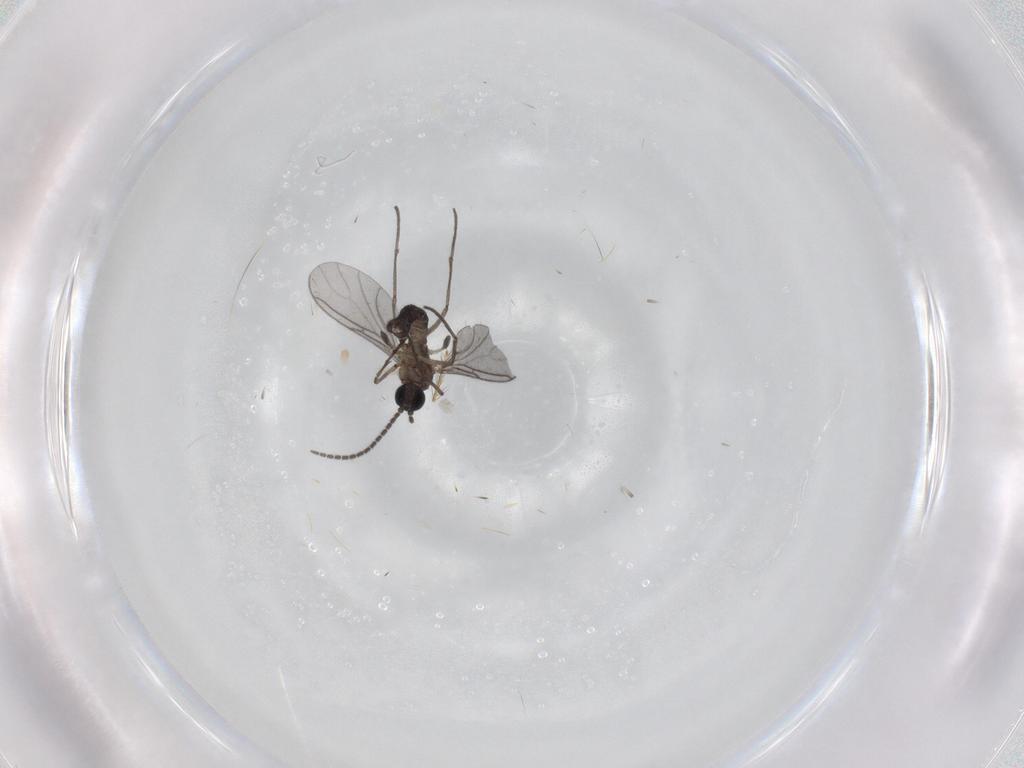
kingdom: Animalia
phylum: Arthropoda
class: Insecta
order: Diptera
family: Sciaridae
